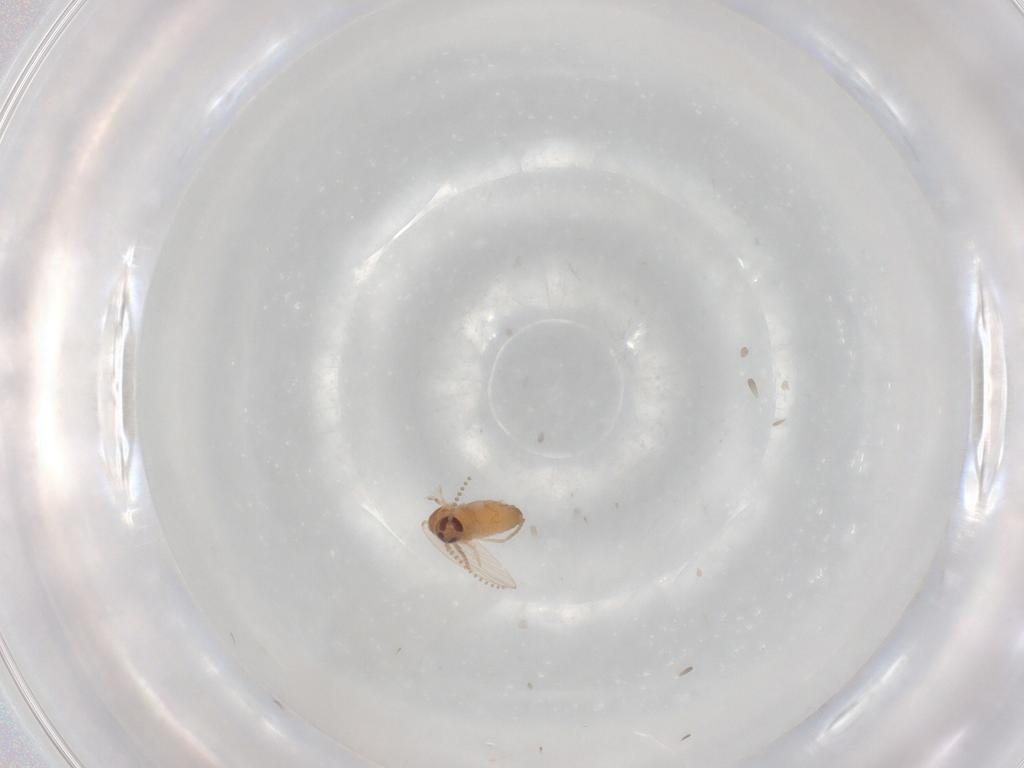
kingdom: Animalia
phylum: Arthropoda
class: Insecta
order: Diptera
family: Psychodidae
